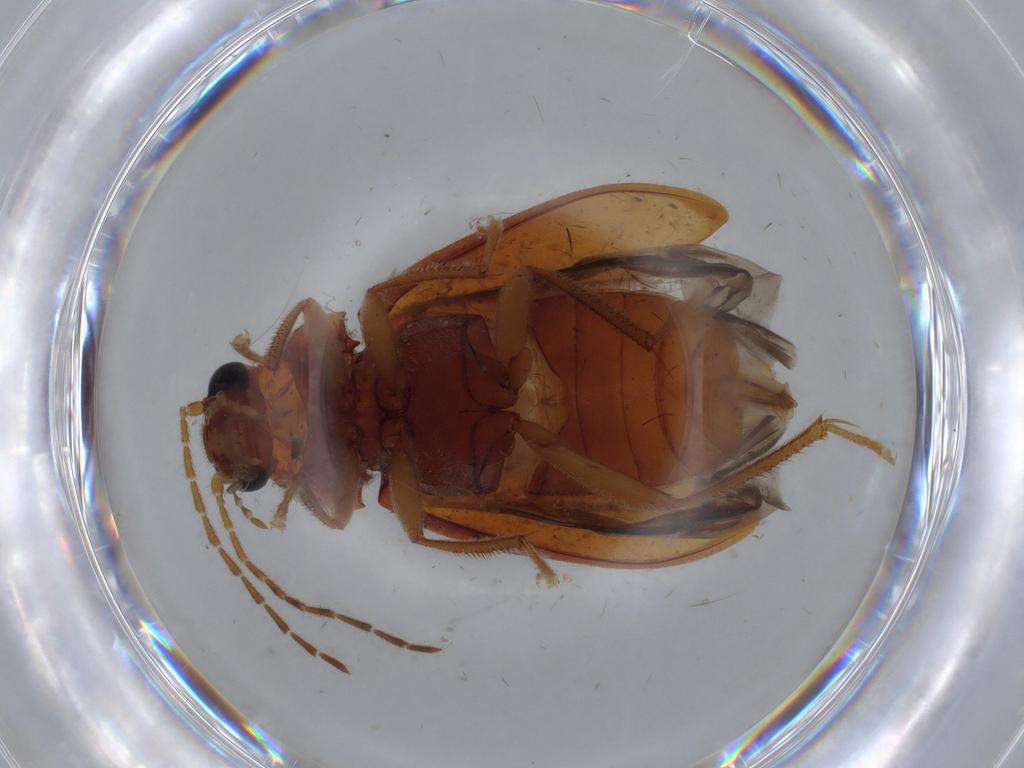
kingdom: Animalia
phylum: Arthropoda
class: Insecta
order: Coleoptera
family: Ptilodactylidae
